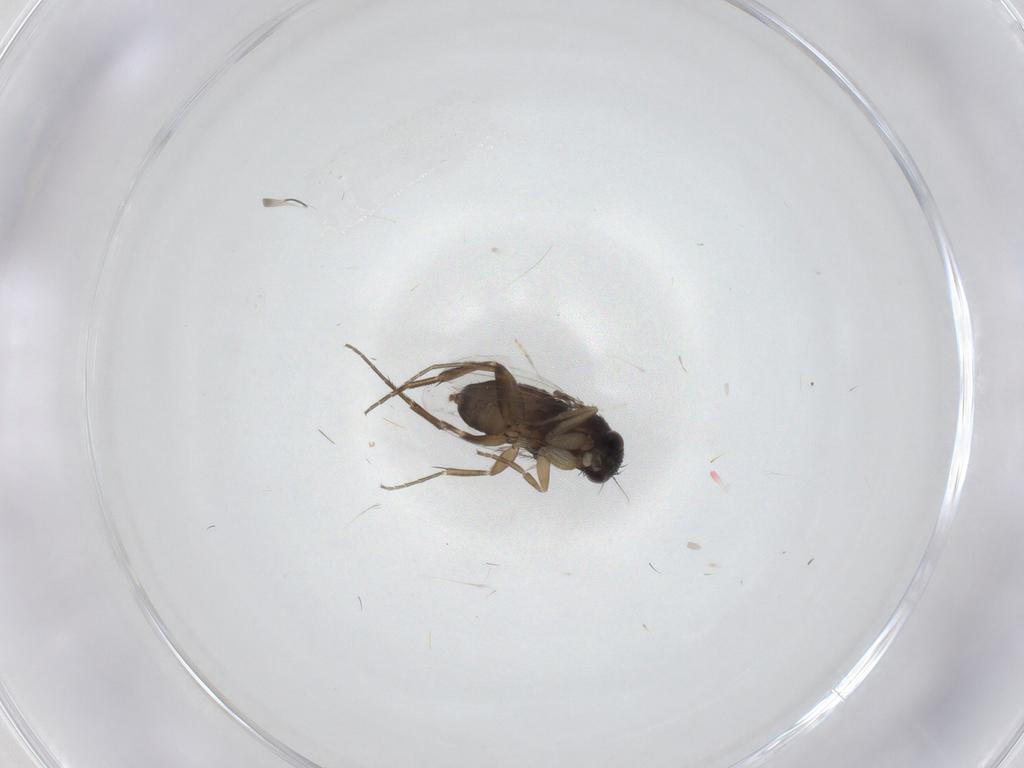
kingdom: Animalia
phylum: Arthropoda
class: Insecta
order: Diptera
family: Phoridae
